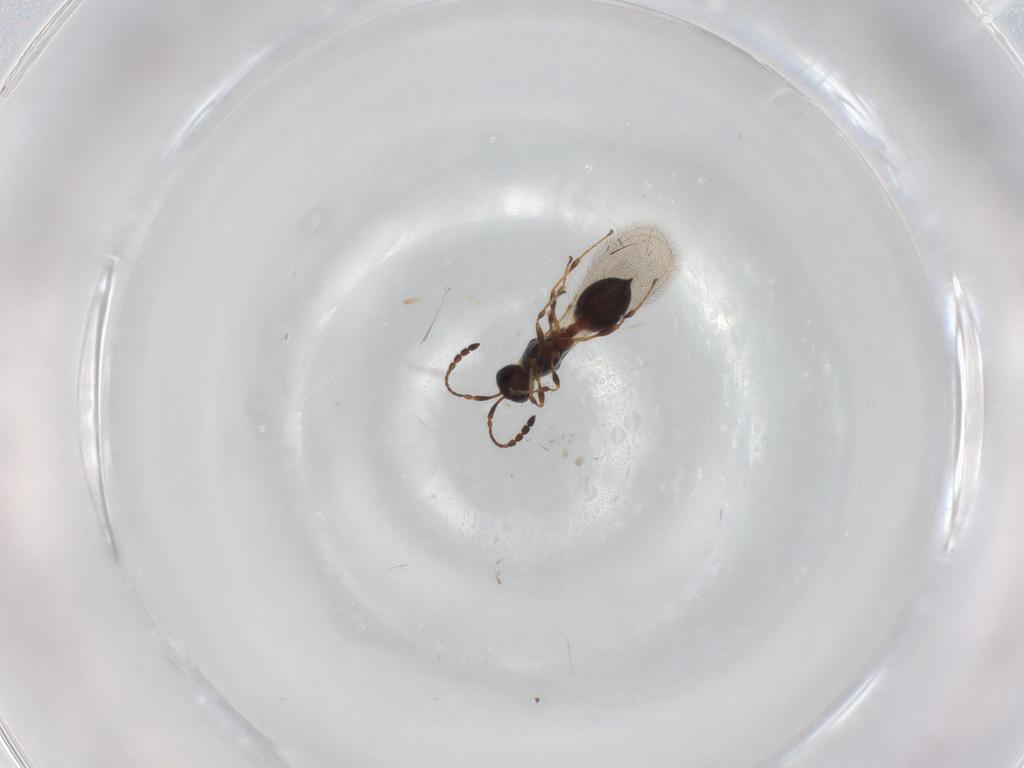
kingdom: Animalia
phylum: Arthropoda
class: Insecta
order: Hymenoptera
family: Diapriidae
